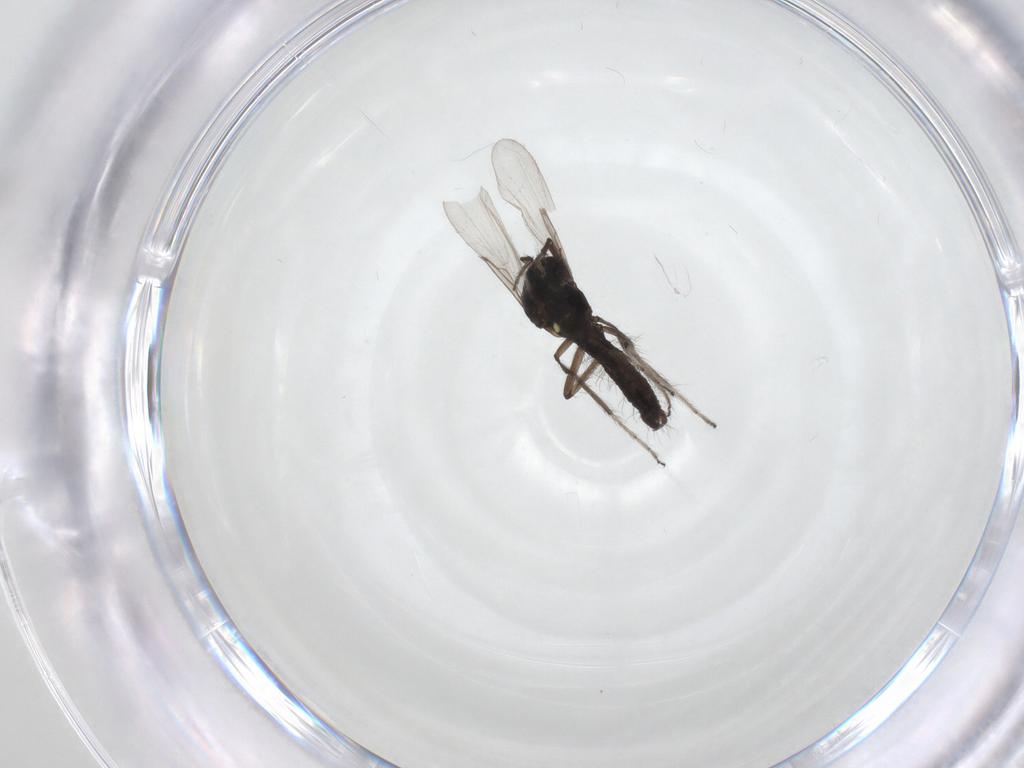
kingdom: Animalia
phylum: Arthropoda
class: Insecta
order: Diptera
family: Ceratopogonidae
